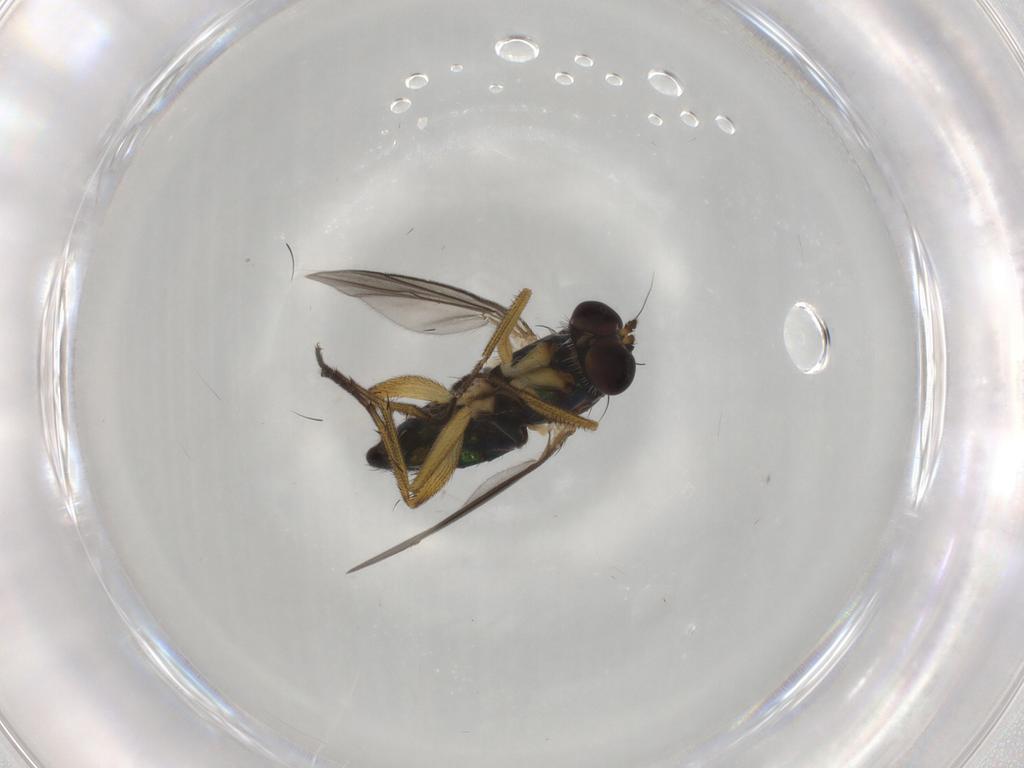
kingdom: Animalia
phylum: Arthropoda
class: Insecta
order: Diptera
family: Dolichopodidae
